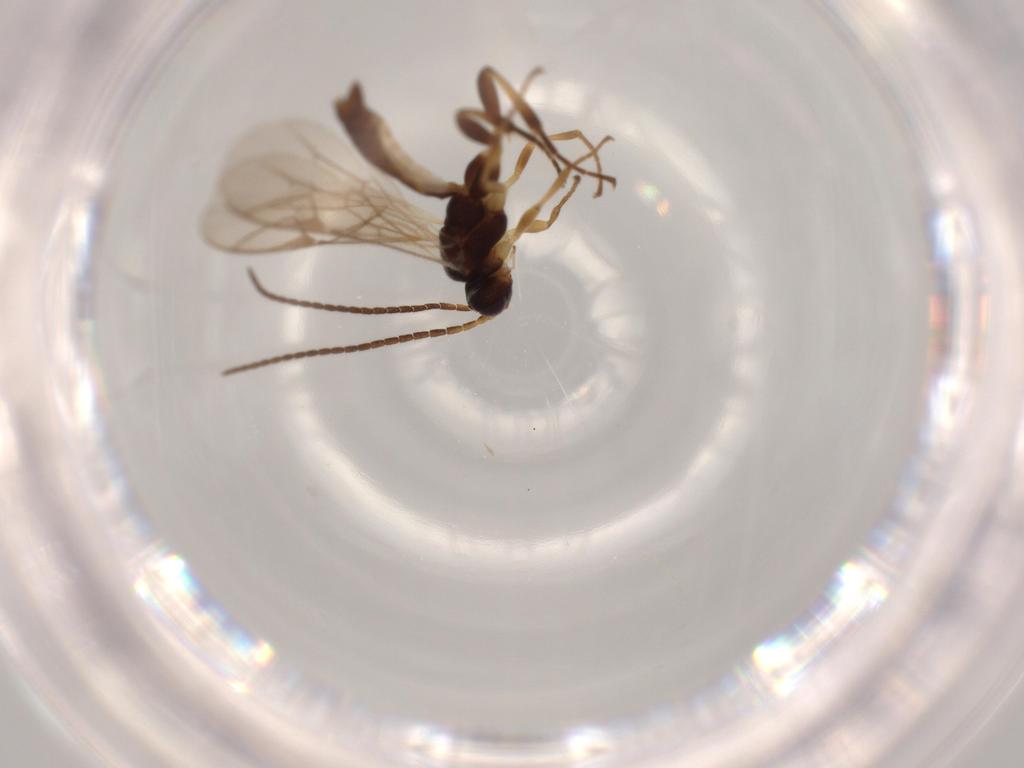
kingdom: Animalia
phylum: Arthropoda
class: Insecta
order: Hymenoptera
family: Ichneumonidae
